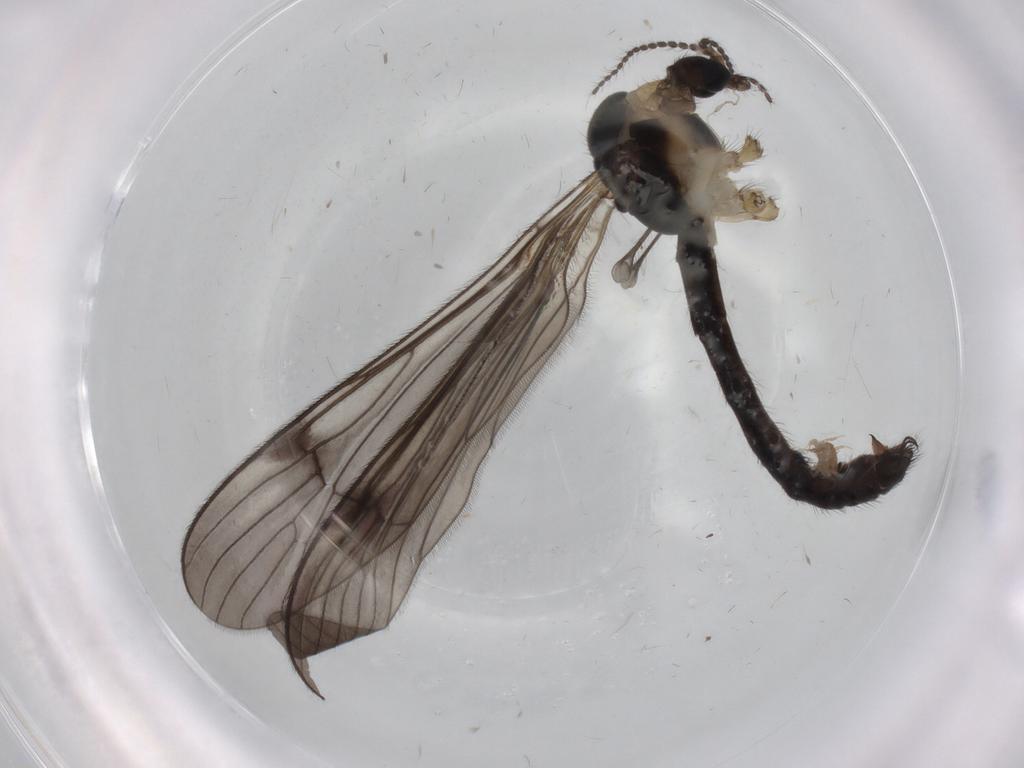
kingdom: Animalia
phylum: Arthropoda
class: Insecta
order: Diptera
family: Limoniidae
